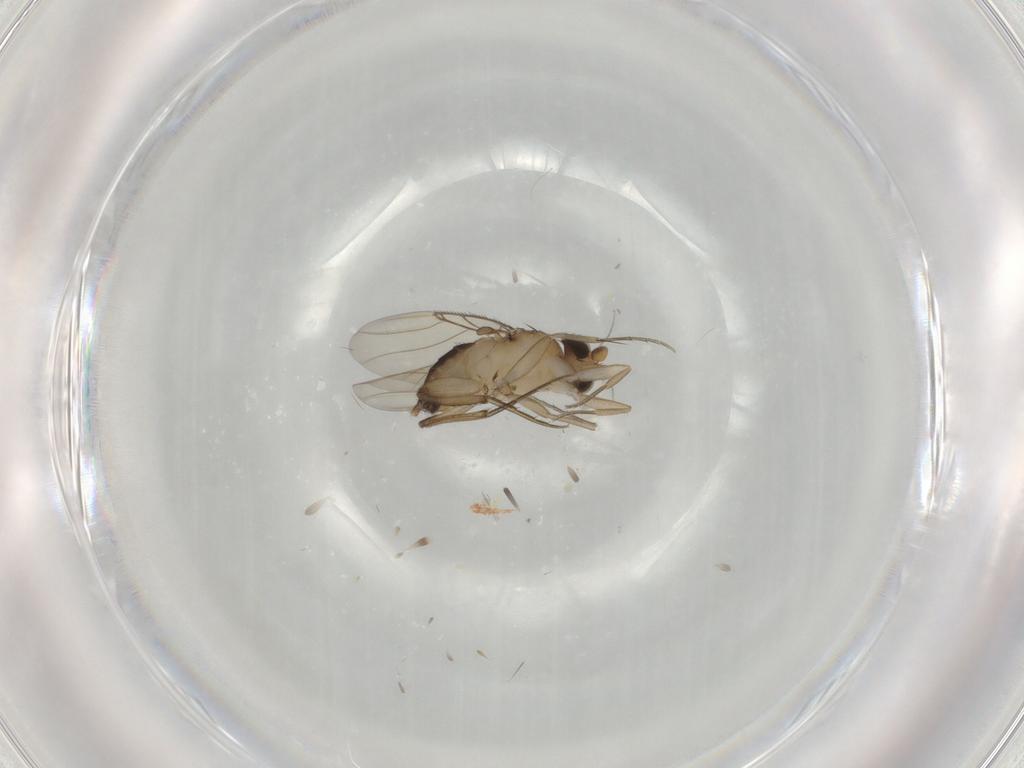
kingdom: Animalia
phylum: Arthropoda
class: Insecta
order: Diptera
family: Phoridae
